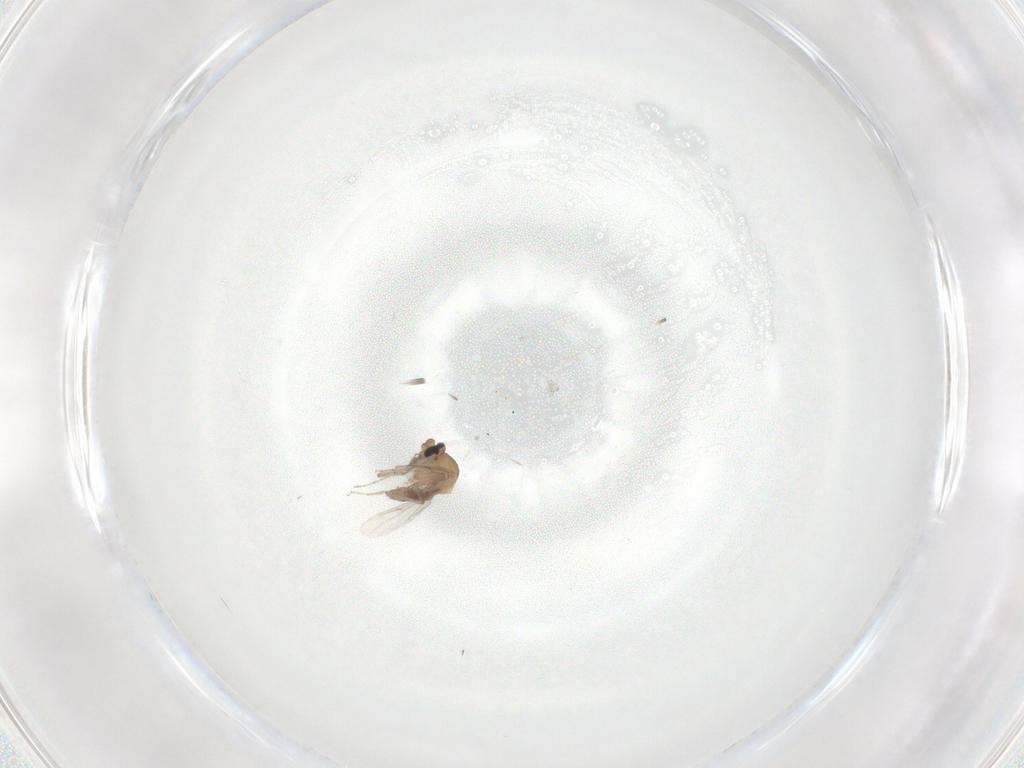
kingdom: Animalia
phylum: Arthropoda
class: Insecta
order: Diptera
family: Ceratopogonidae
